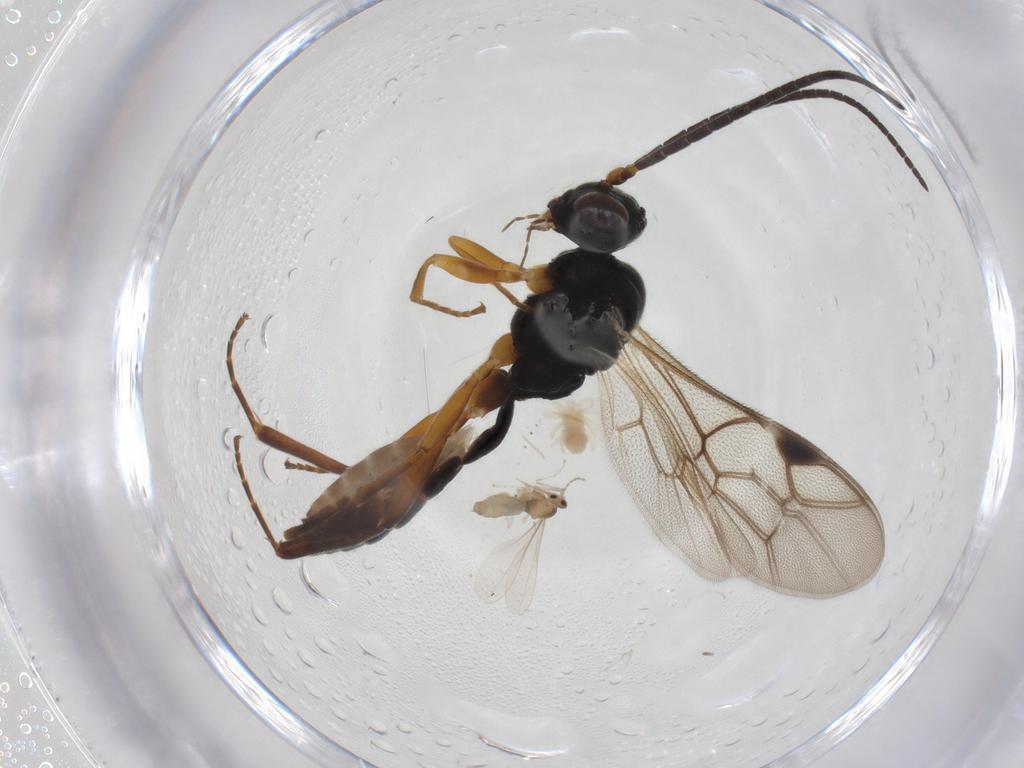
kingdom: Animalia
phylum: Arthropoda
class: Insecta
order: Hymenoptera
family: Ichneumonidae
